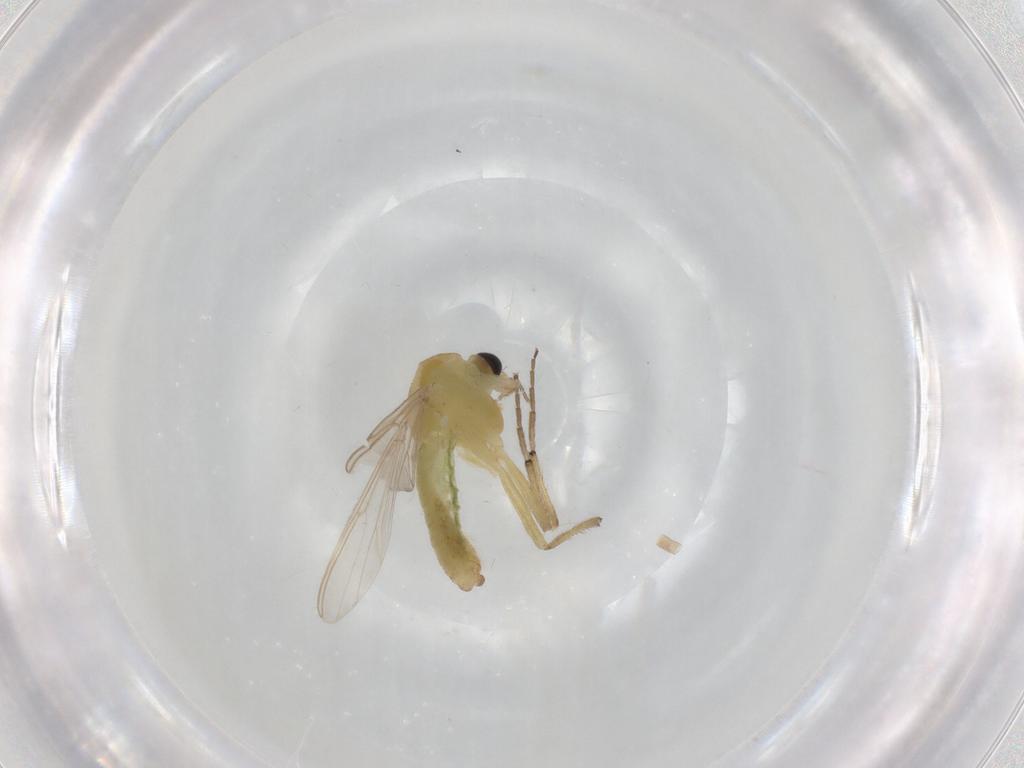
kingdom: Animalia
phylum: Arthropoda
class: Insecta
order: Diptera
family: Chironomidae
